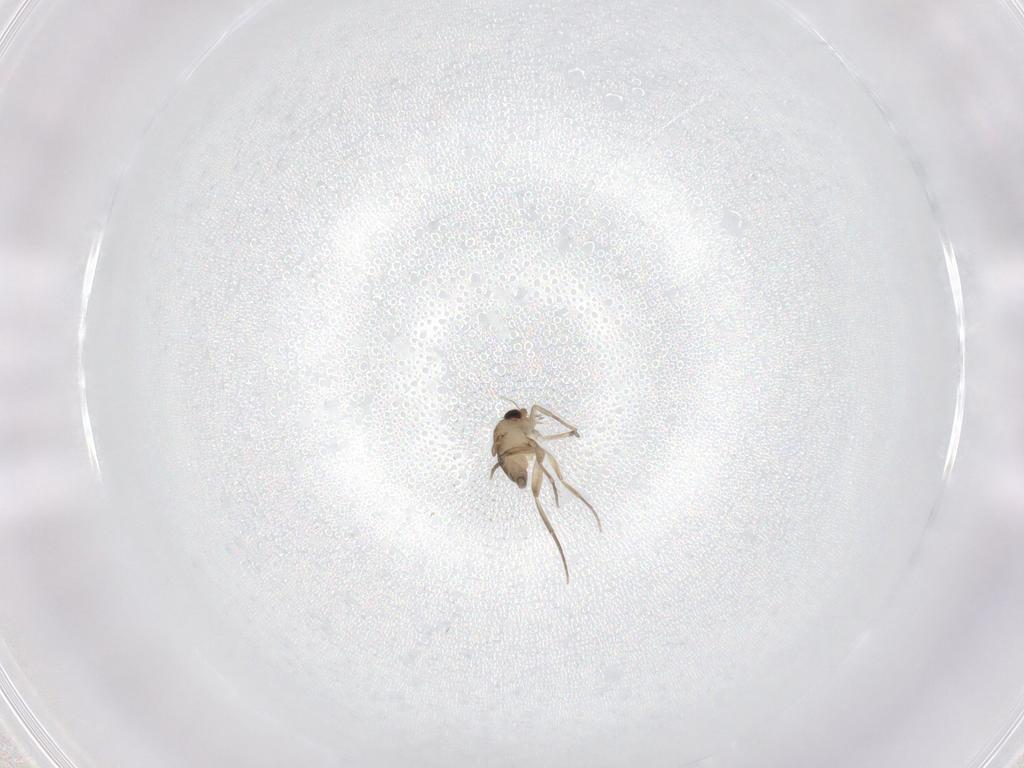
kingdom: Animalia
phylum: Arthropoda
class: Insecta
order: Diptera
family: Phoridae
